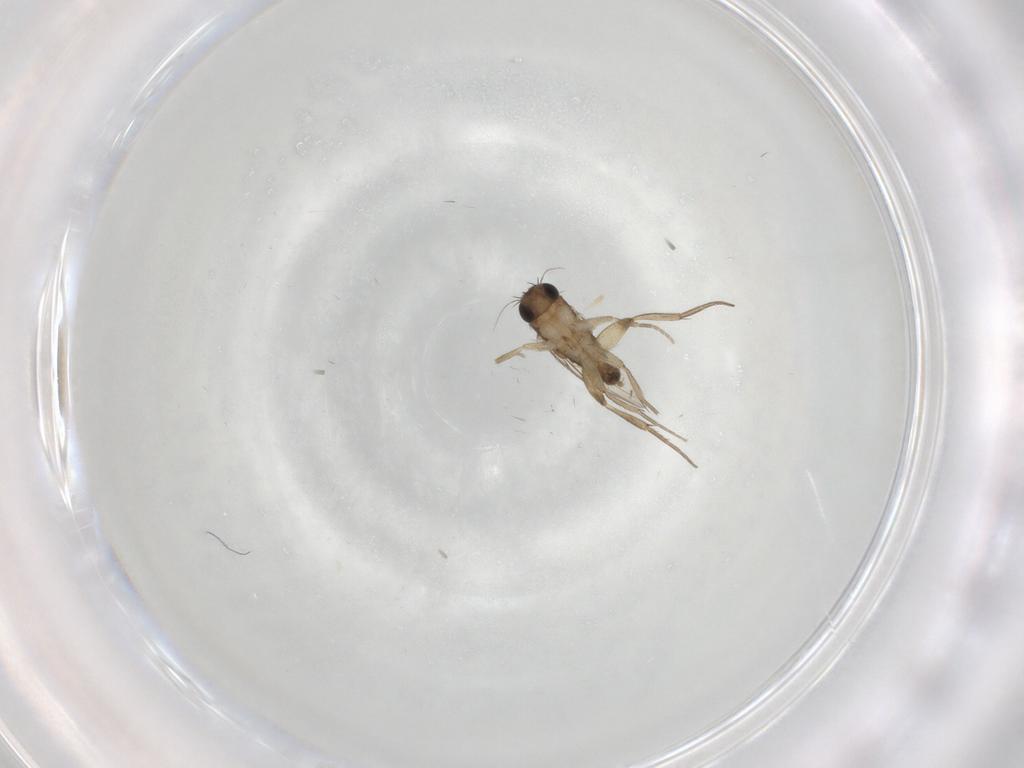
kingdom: Animalia
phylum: Arthropoda
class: Insecta
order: Diptera
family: Phoridae
